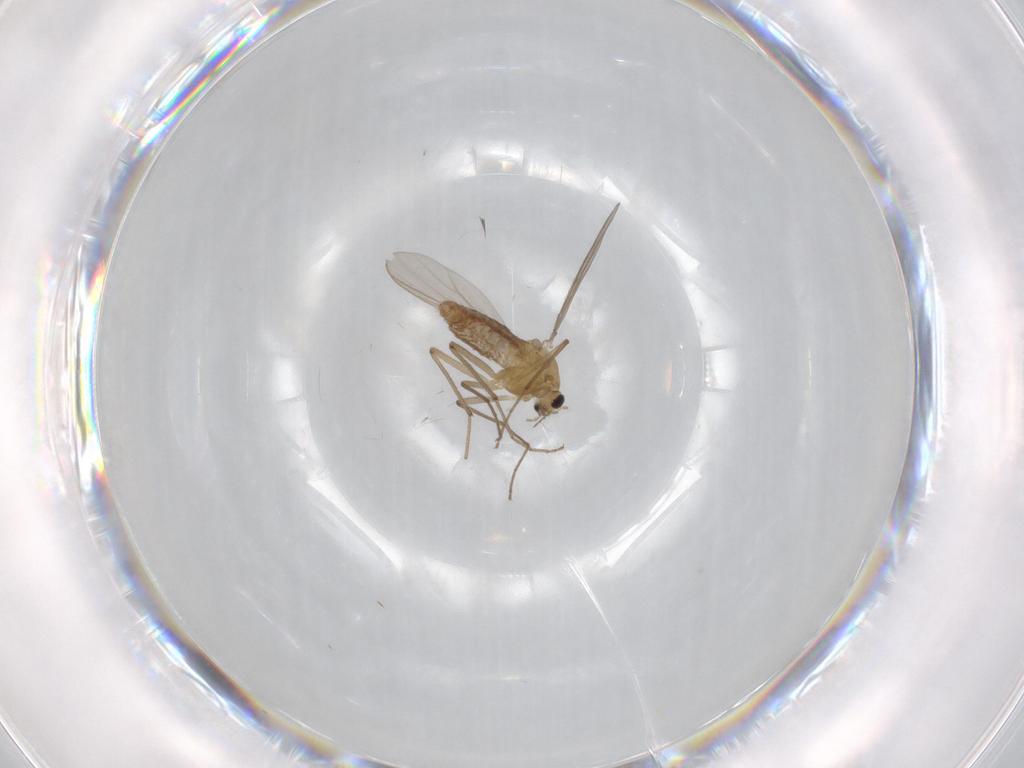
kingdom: Animalia
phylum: Arthropoda
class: Insecta
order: Diptera
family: Chironomidae
